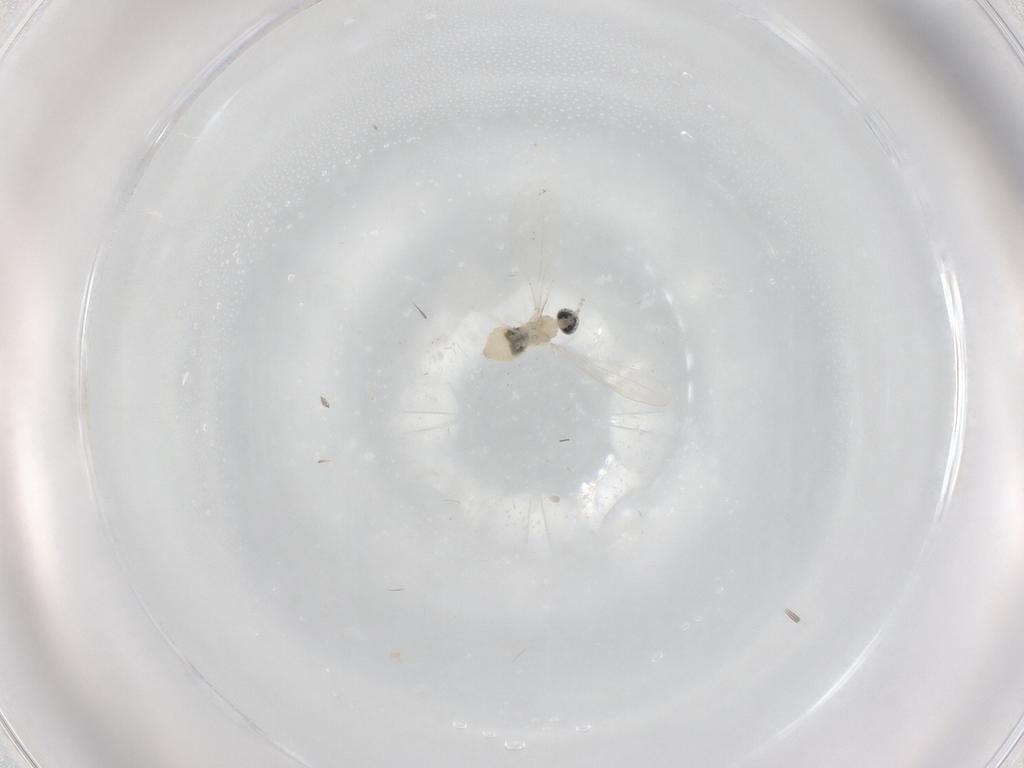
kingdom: Animalia
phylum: Arthropoda
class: Insecta
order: Diptera
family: Cecidomyiidae
